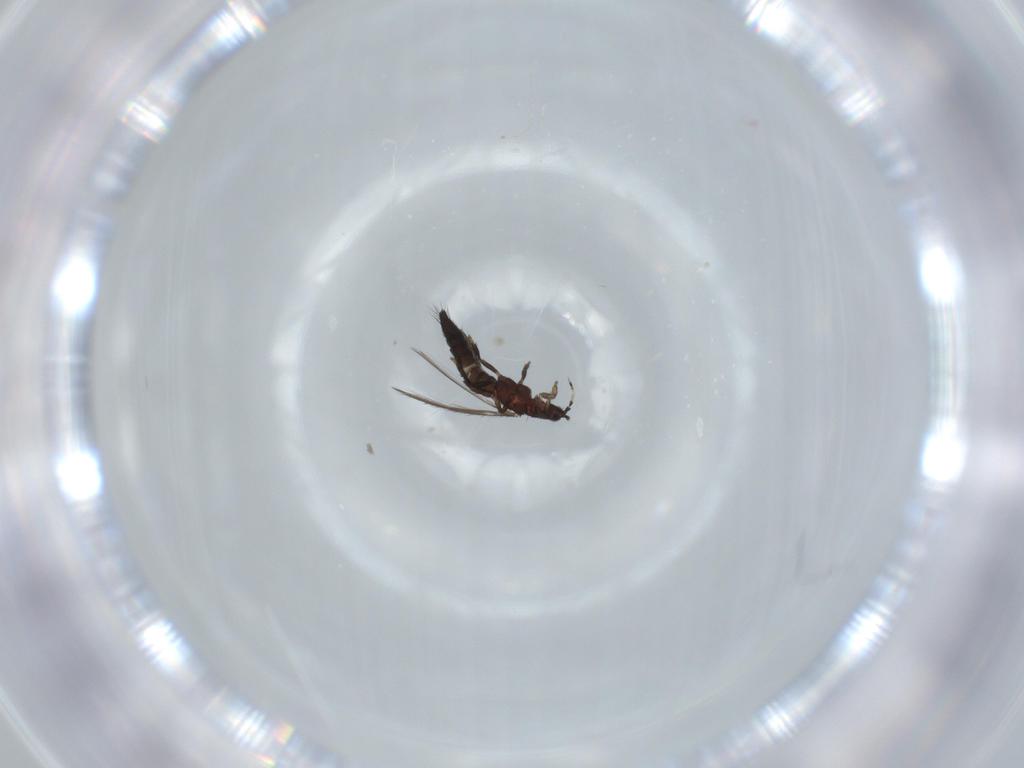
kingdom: Animalia
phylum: Arthropoda
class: Insecta
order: Thysanoptera
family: Thripidae
